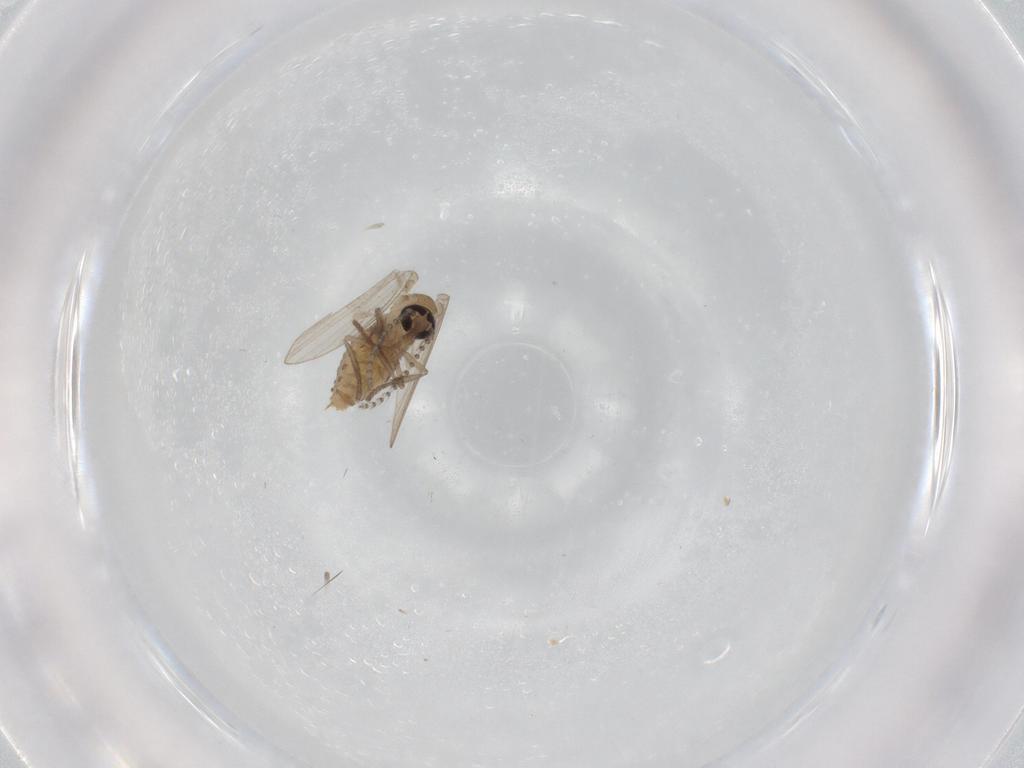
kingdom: Animalia
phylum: Arthropoda
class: Insecta
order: Diptera
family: Psychodidae
